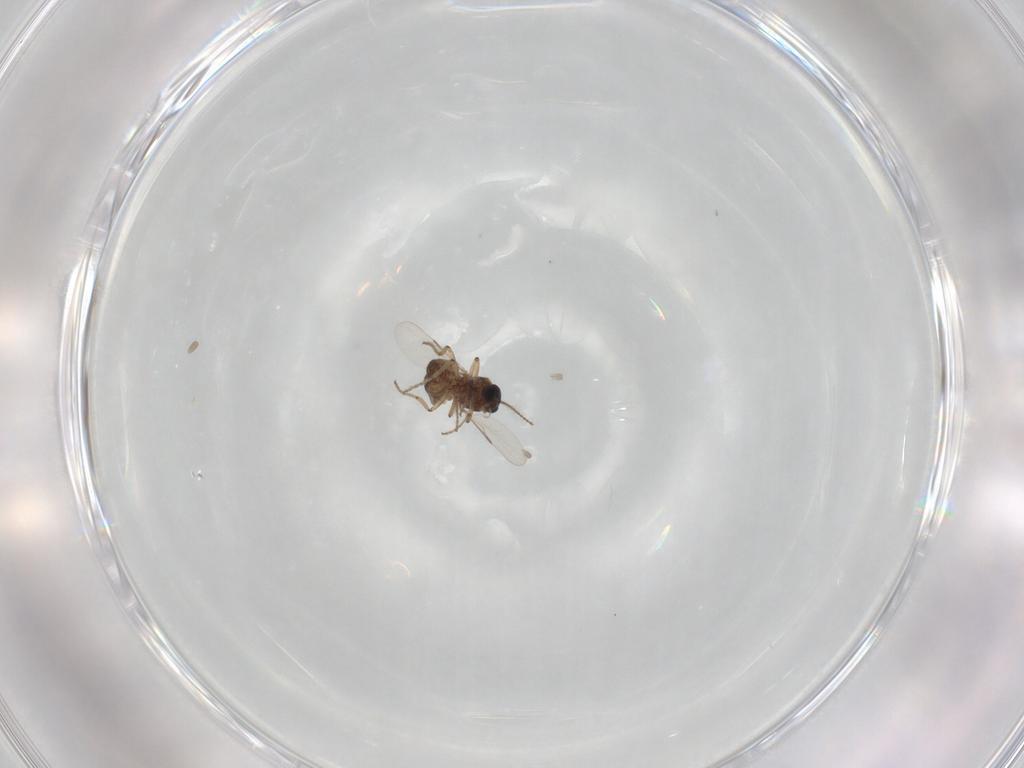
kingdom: Animalia
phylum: Arthropoda
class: Insecta
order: Diptera
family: Ceratopogonidae
